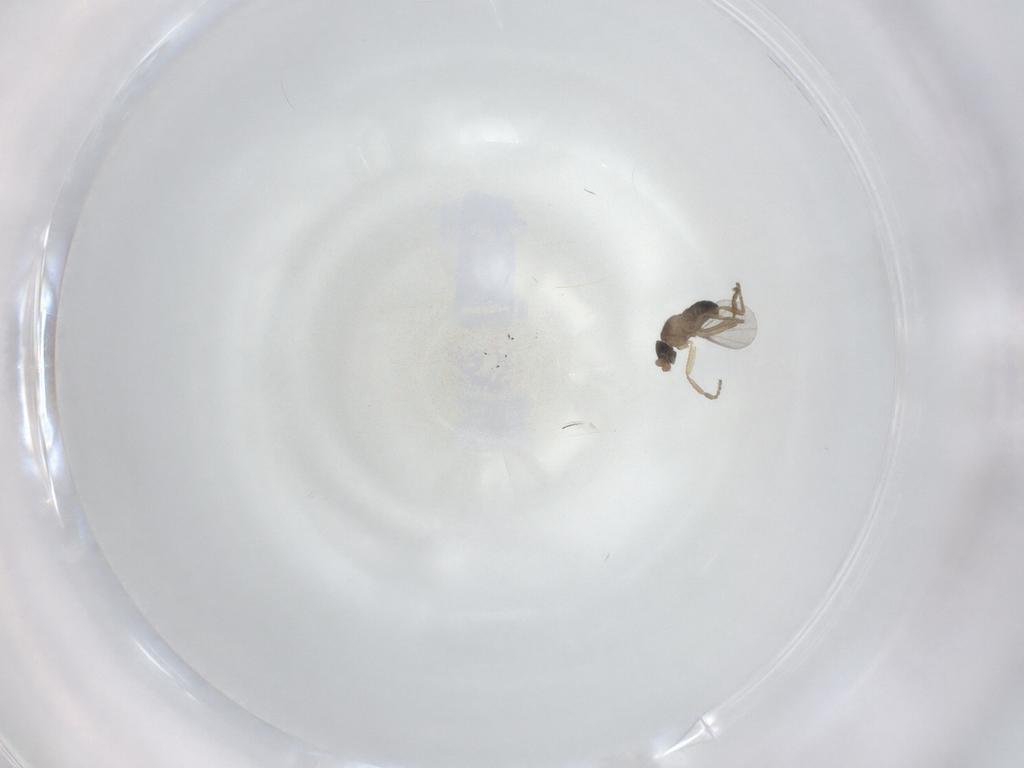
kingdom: Animalia
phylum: Arthropoda
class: Insecta
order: Diptera
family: Phoridae
